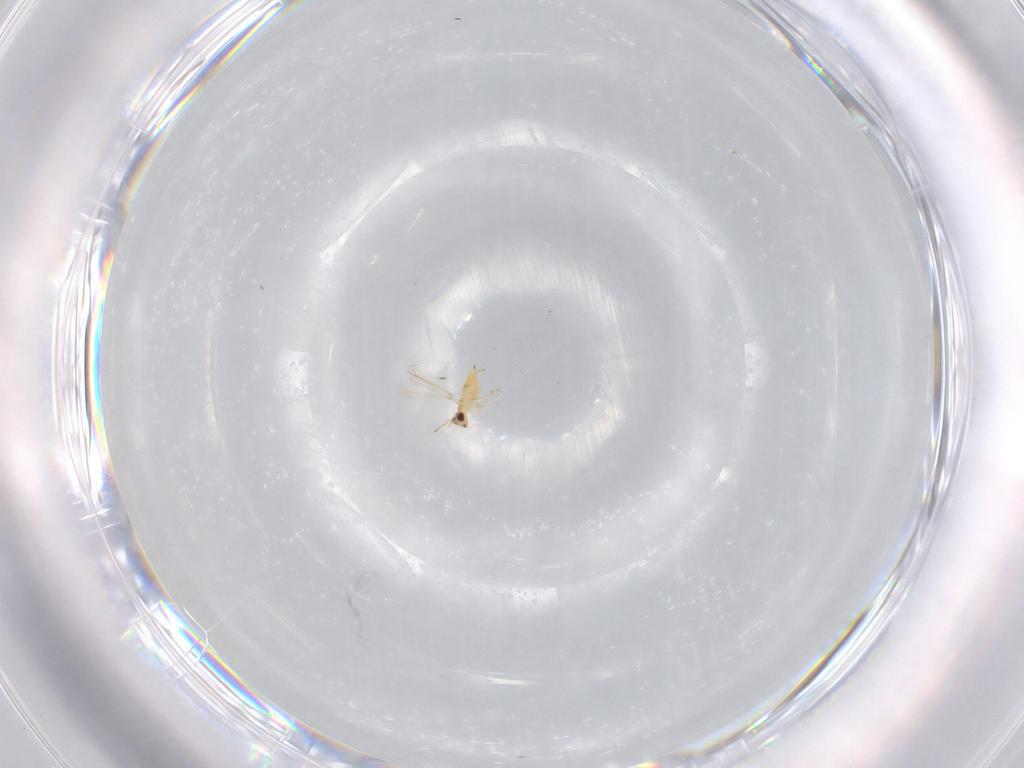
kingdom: Animalia
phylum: Arthropoda
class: Insecta
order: Hymenoptera
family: Mymaridae
